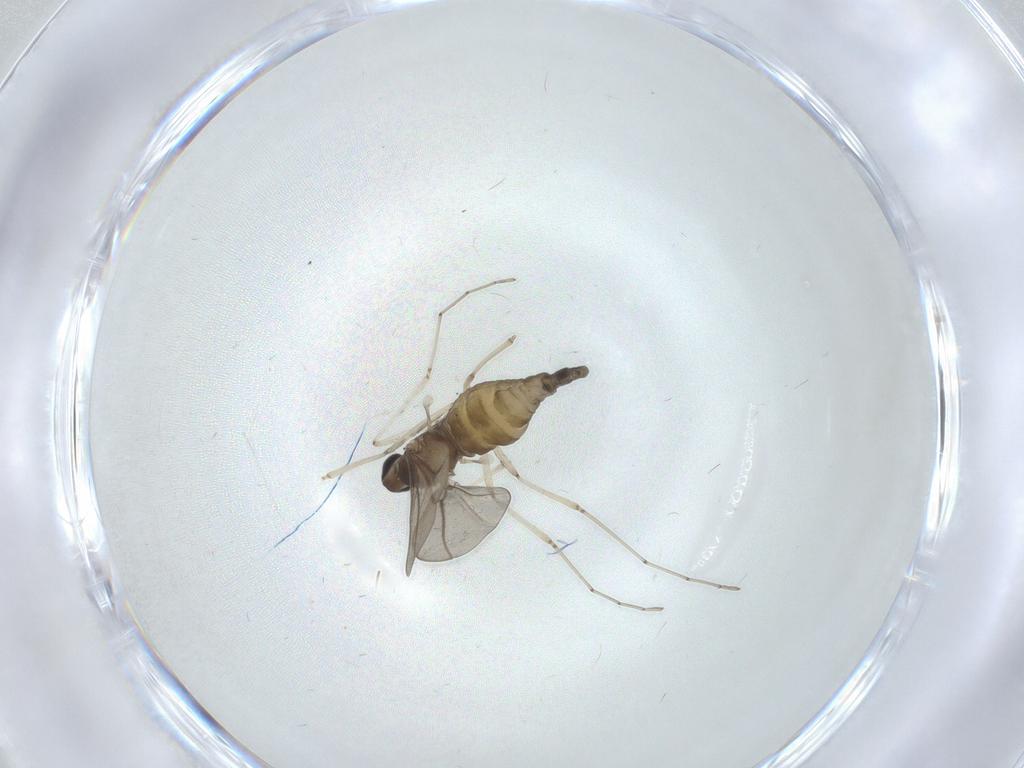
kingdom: Animalia
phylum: Arthropoda
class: Insecta
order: Diptera
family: Cecidomyiidae
